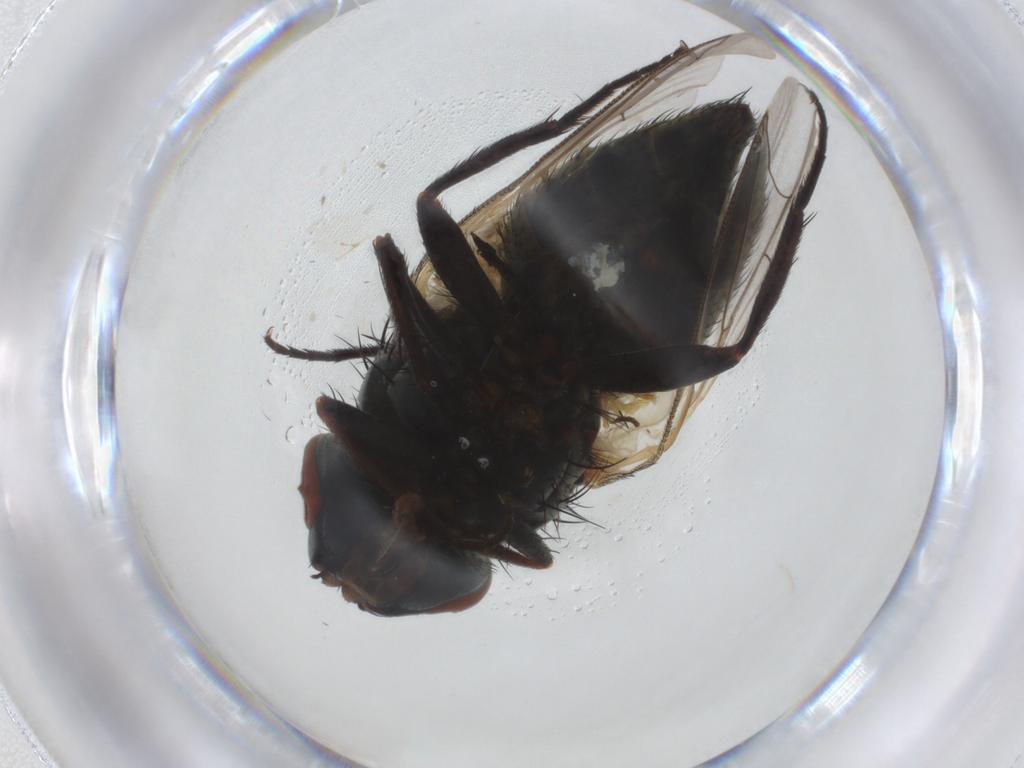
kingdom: Animalia
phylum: Arthropoda
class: Insecta
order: Diptera
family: Sarcophagidae
